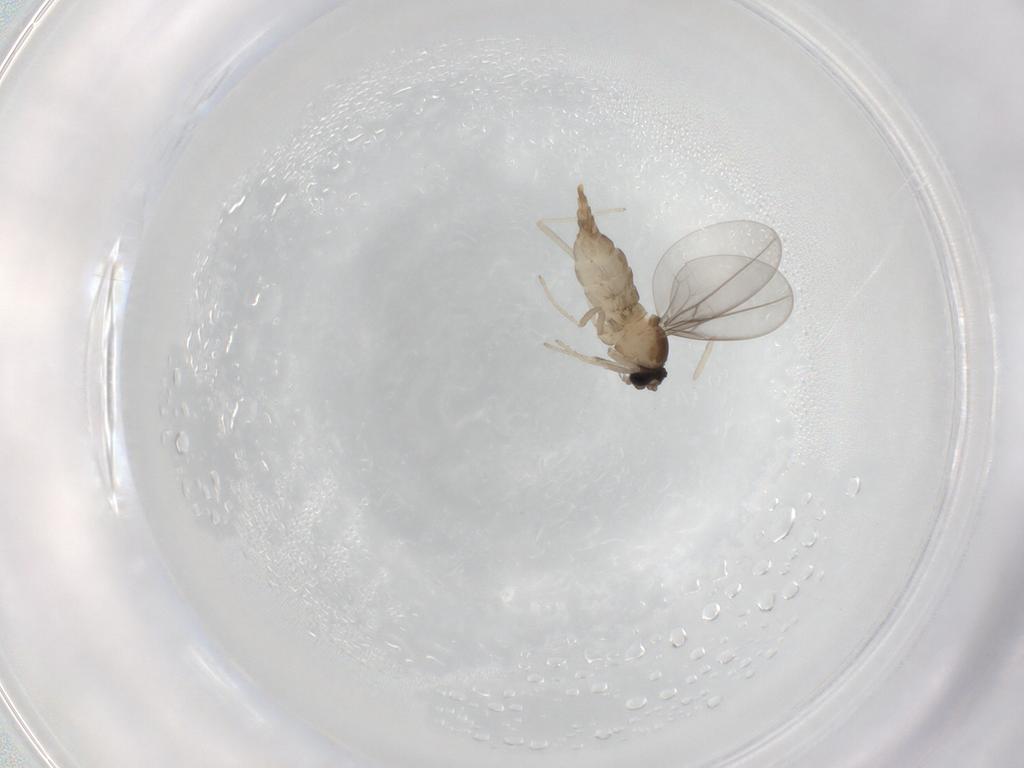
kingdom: Animalia
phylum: Arthropoda
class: Insecta
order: Diptera
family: Cecidomyiidae
